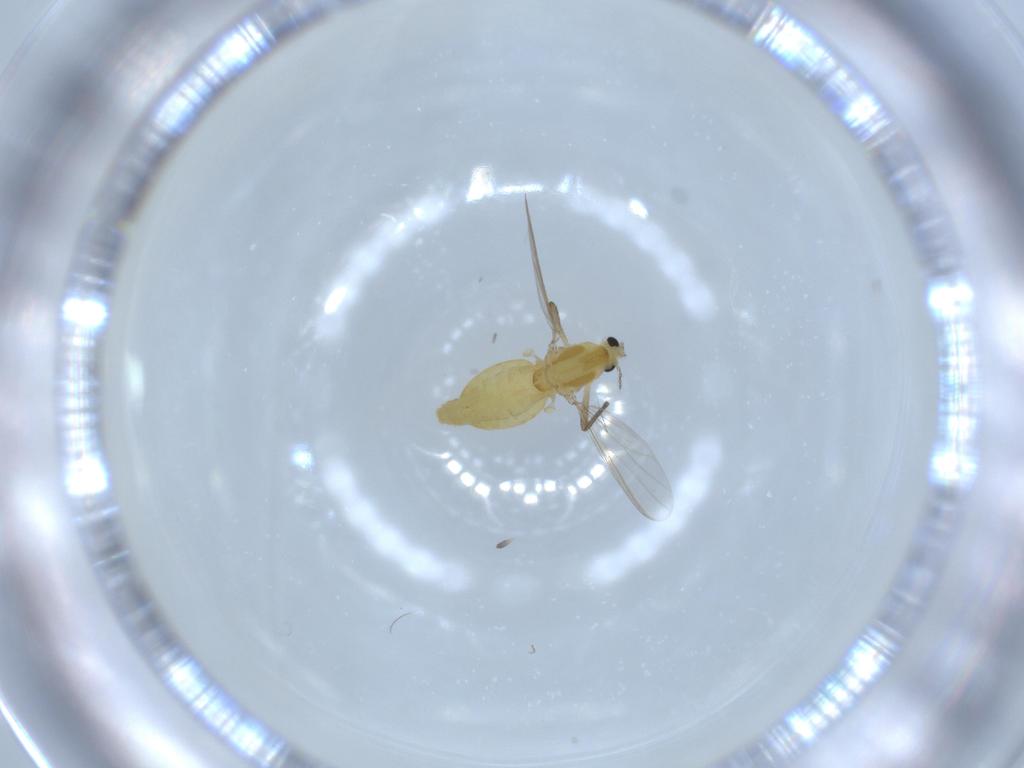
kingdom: Animalia
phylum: Arthropoda
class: Insecta
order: Diptera
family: Chironomidae
